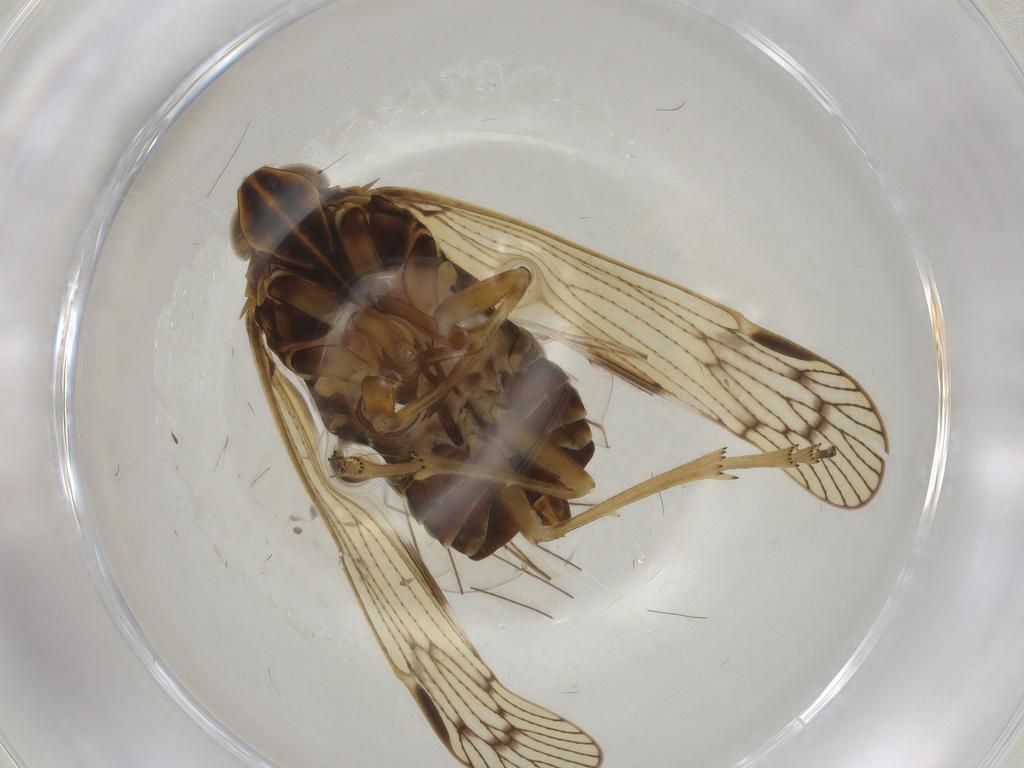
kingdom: Animalia
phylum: Arthropoda
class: Insecta
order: Hemiptera
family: Cixiidae
